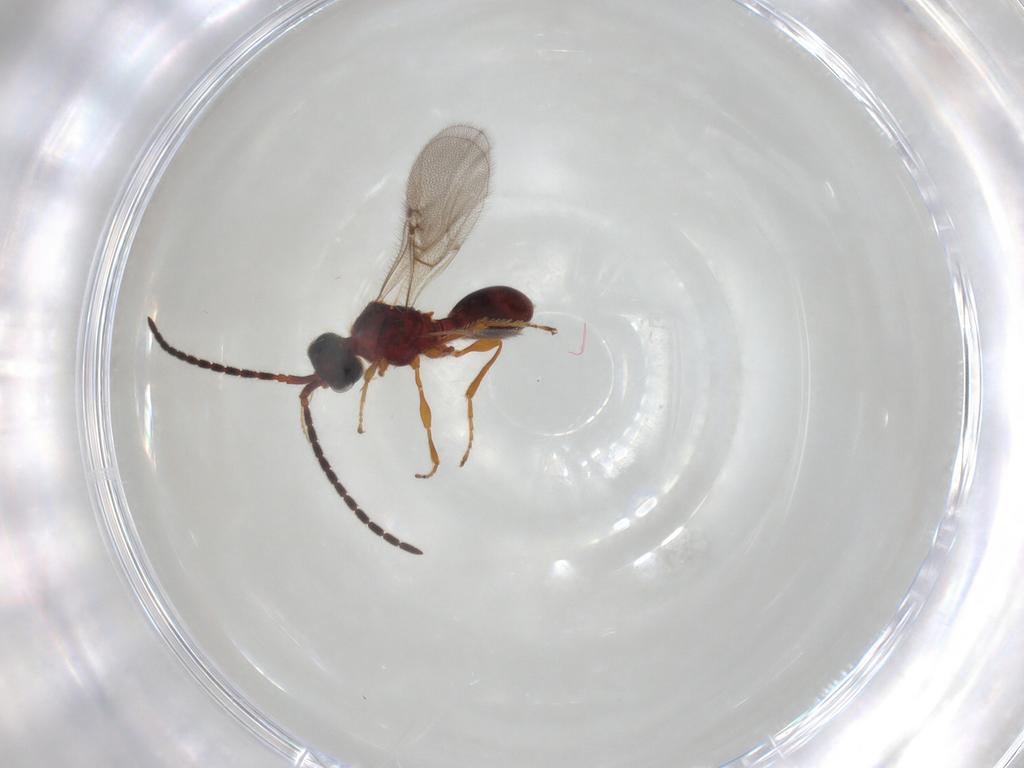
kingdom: Animalia
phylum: Arthropoda
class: Insecta
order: Hymenoptera
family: Diapriidae
